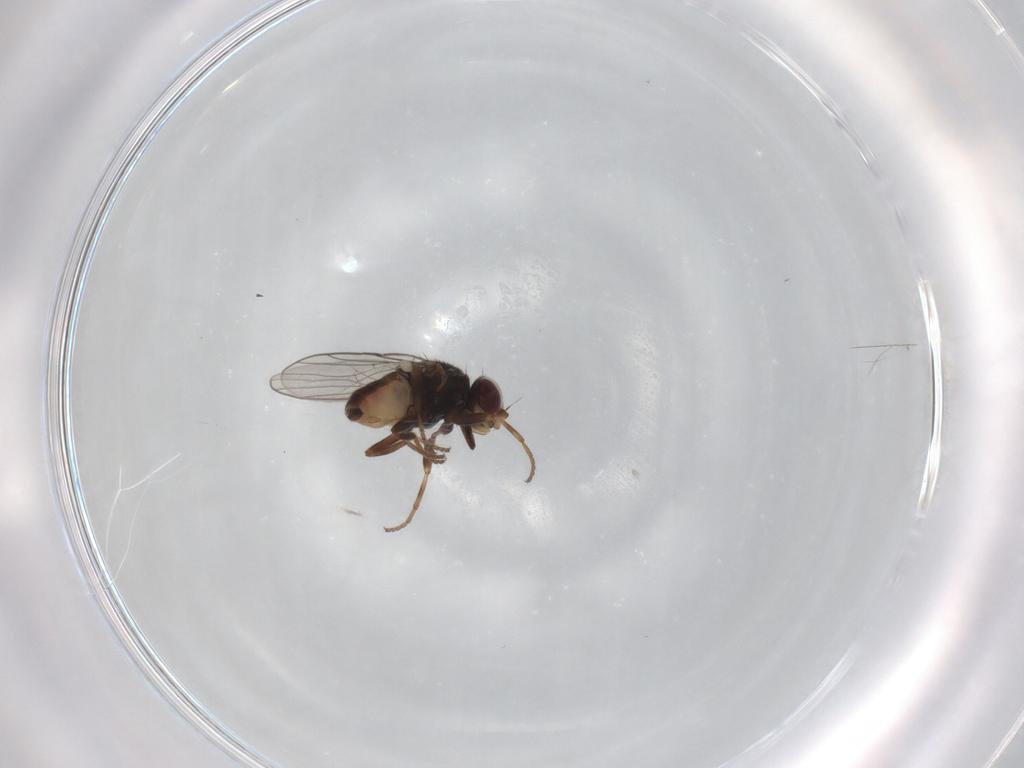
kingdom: Animalia
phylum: Arthropoda
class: Insecta
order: Diptera
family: Chloropidae
